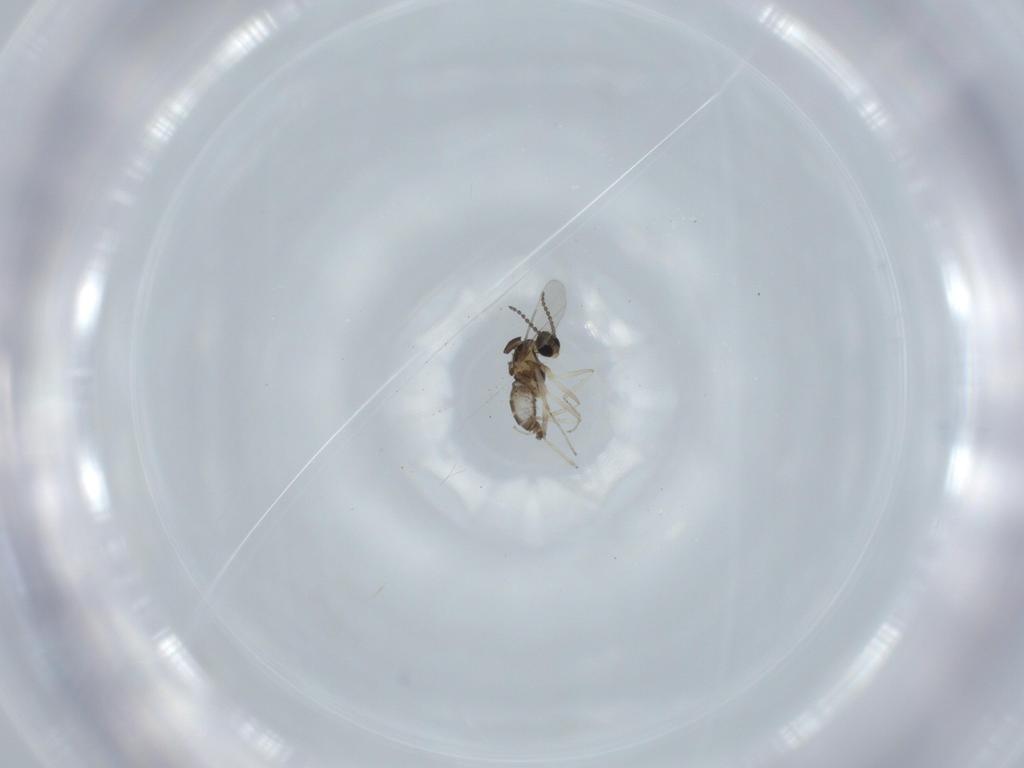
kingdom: Animalia
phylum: Arthropoda
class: Insecta
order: Diptera
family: Cecidomyiidae
